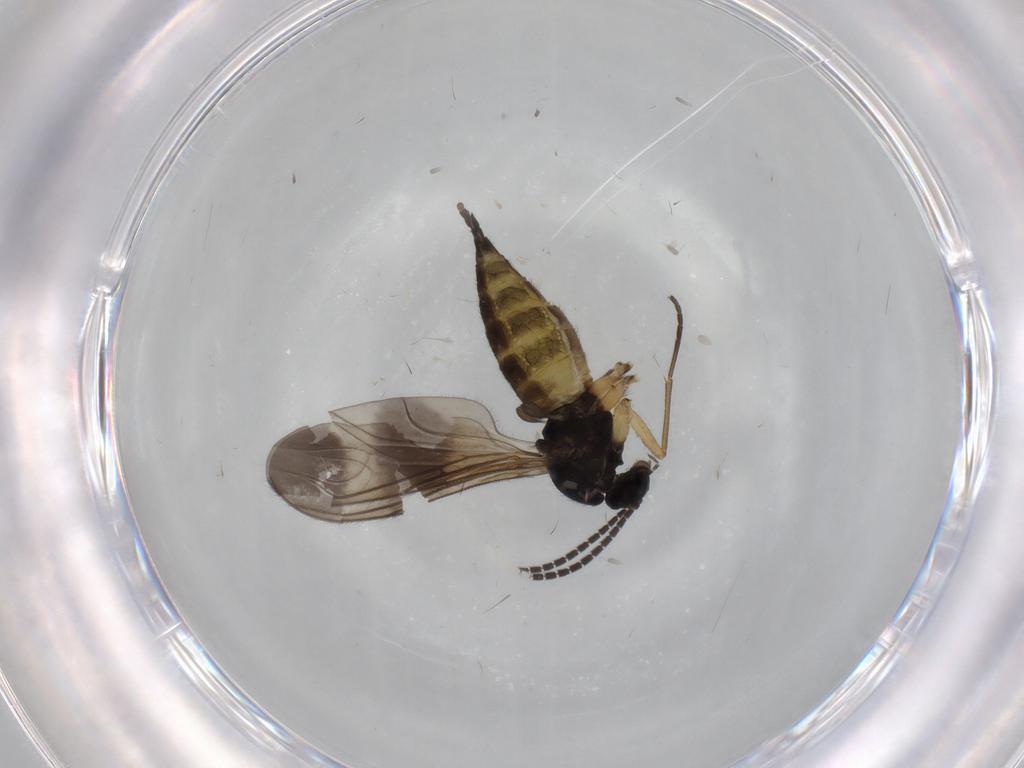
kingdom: Animalia
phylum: Arthropoda
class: Insecta
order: Diptera
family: Sciaridae
